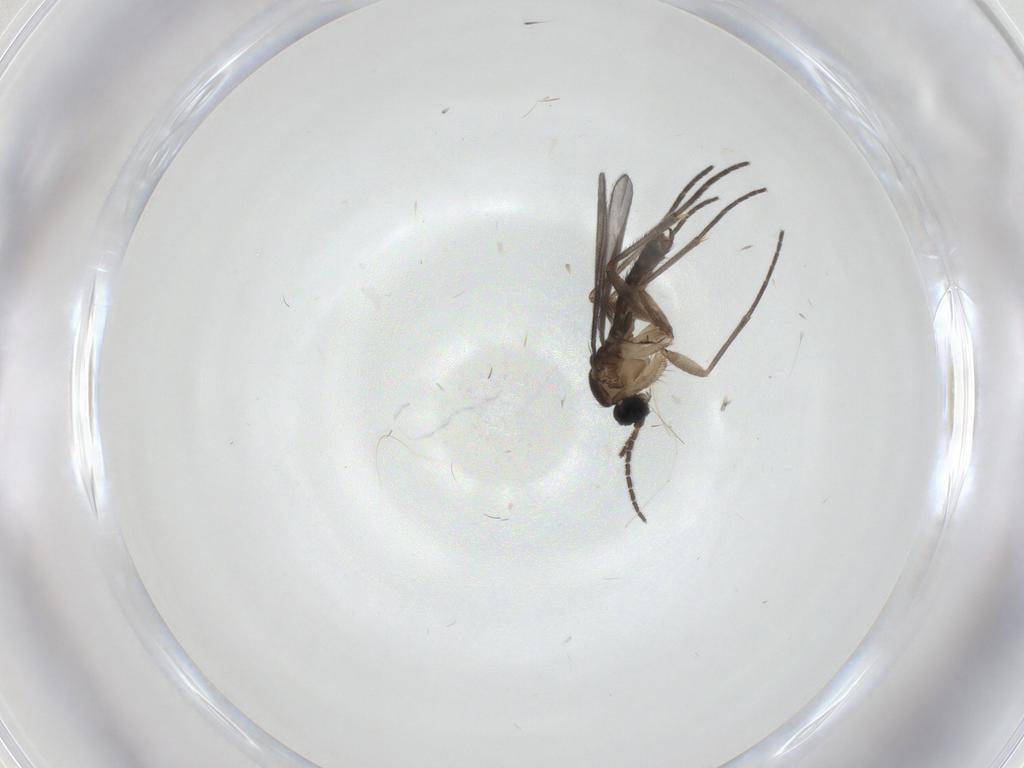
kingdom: Animalia
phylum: Arthropoda
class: Insecta
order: Diptera
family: Sciaridae
